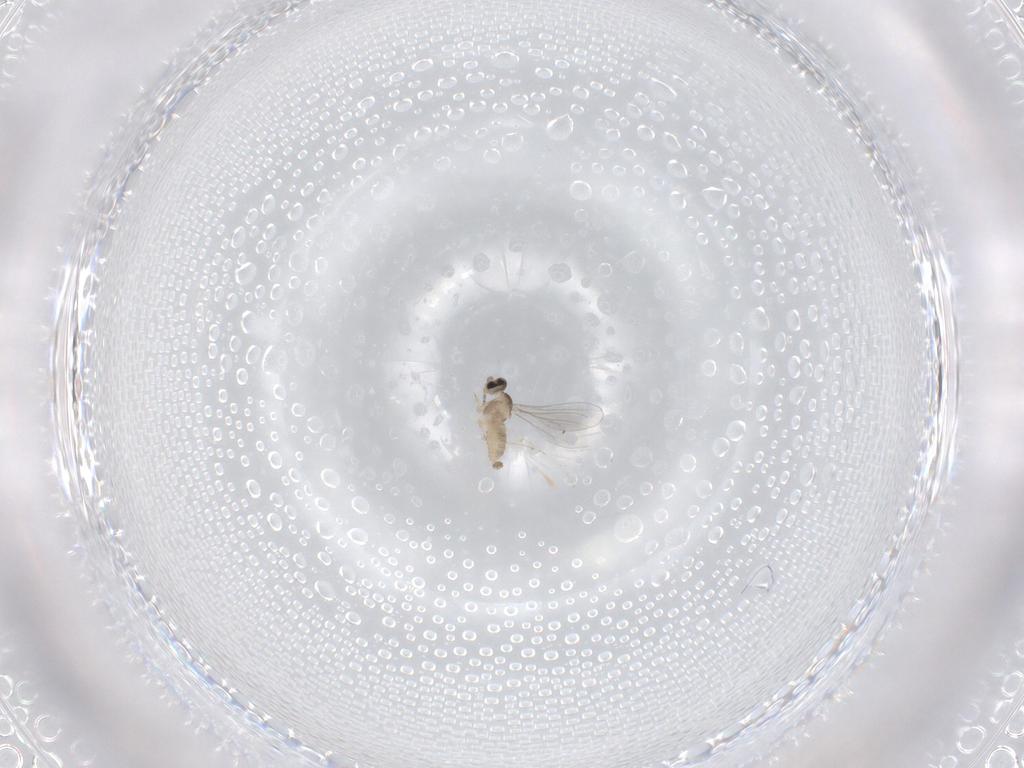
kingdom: Animalia
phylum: Arthropoda
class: Insecta
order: Diptera
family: Cecidomyiidae
